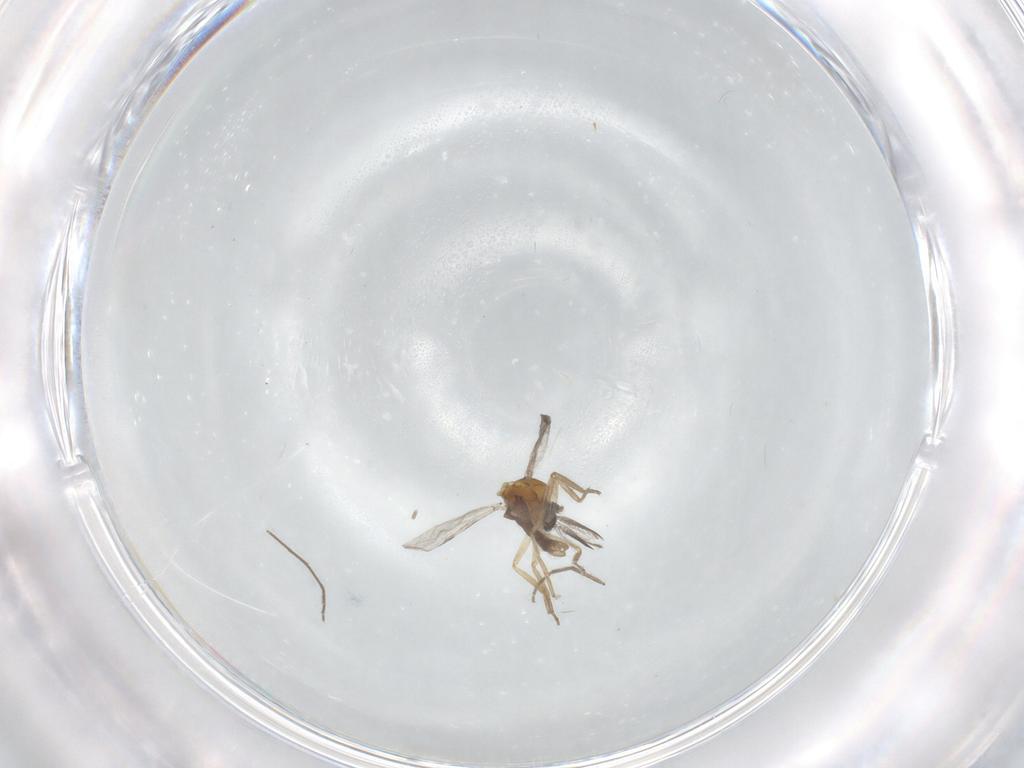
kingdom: Animalia
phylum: Arthropoda
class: Insecta
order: Diptera
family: Ceratopogonidae
